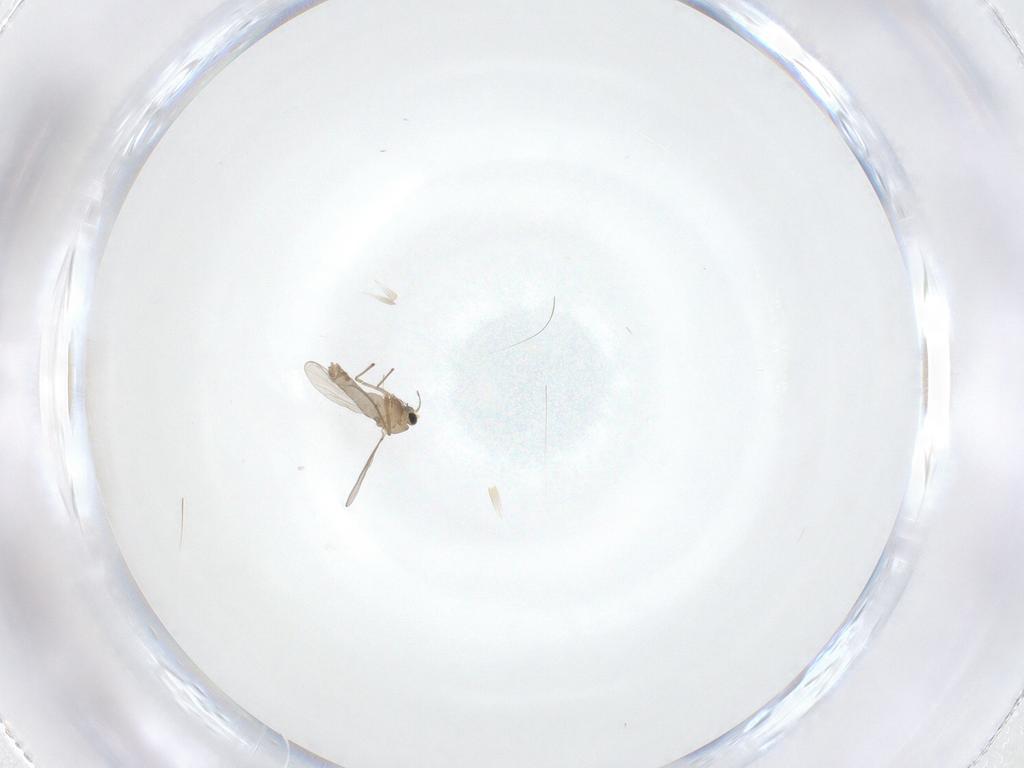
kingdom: Animalia
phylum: Arthropoda
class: Insecta
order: Diptera
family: Chironomidae
